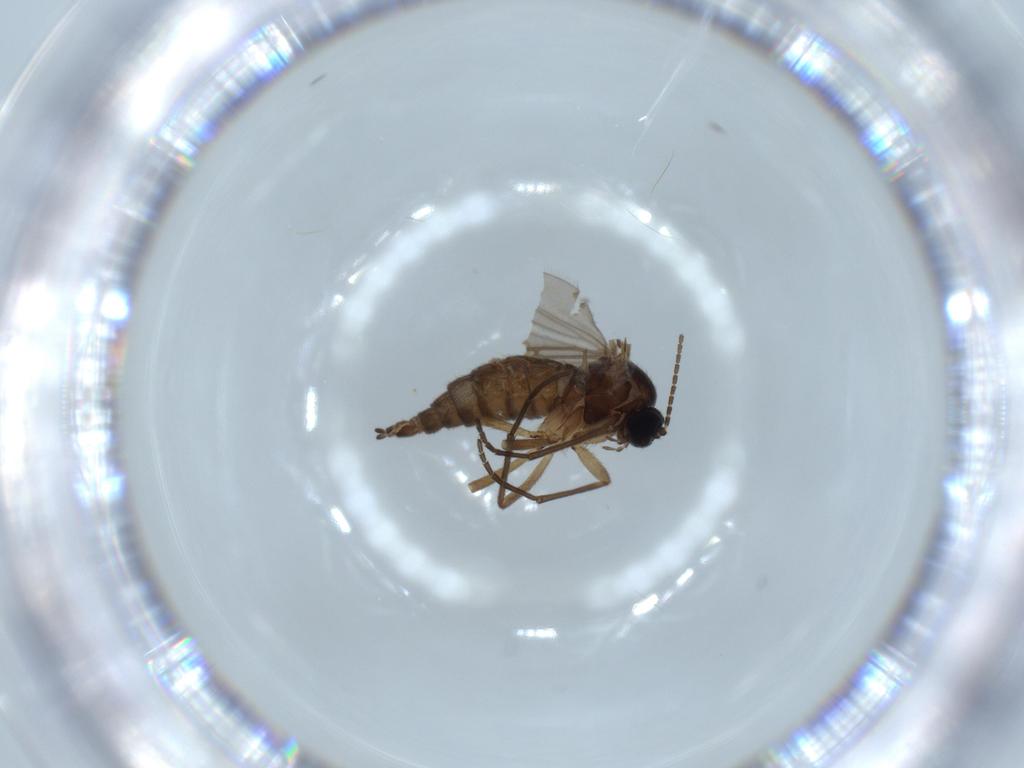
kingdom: Animalia
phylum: Arthropoda
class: Insecta
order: Diptera
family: Sciaridae
